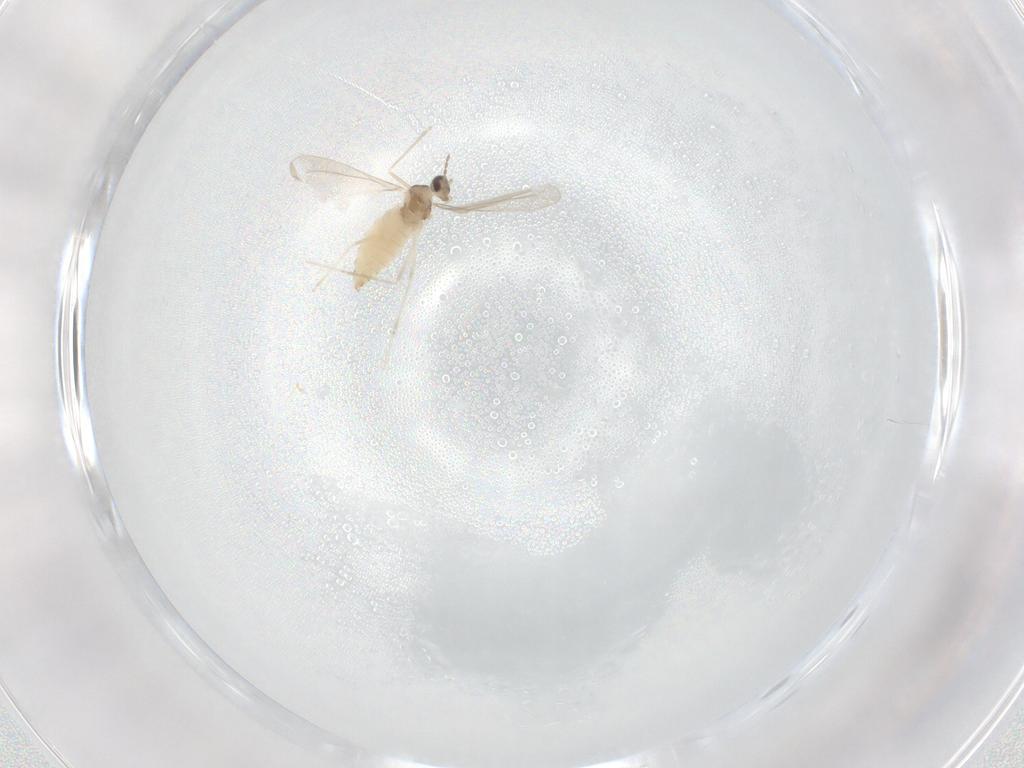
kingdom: Animalia
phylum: Arthropoda
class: Insecta
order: Diptera
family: Cecidomyiidae
